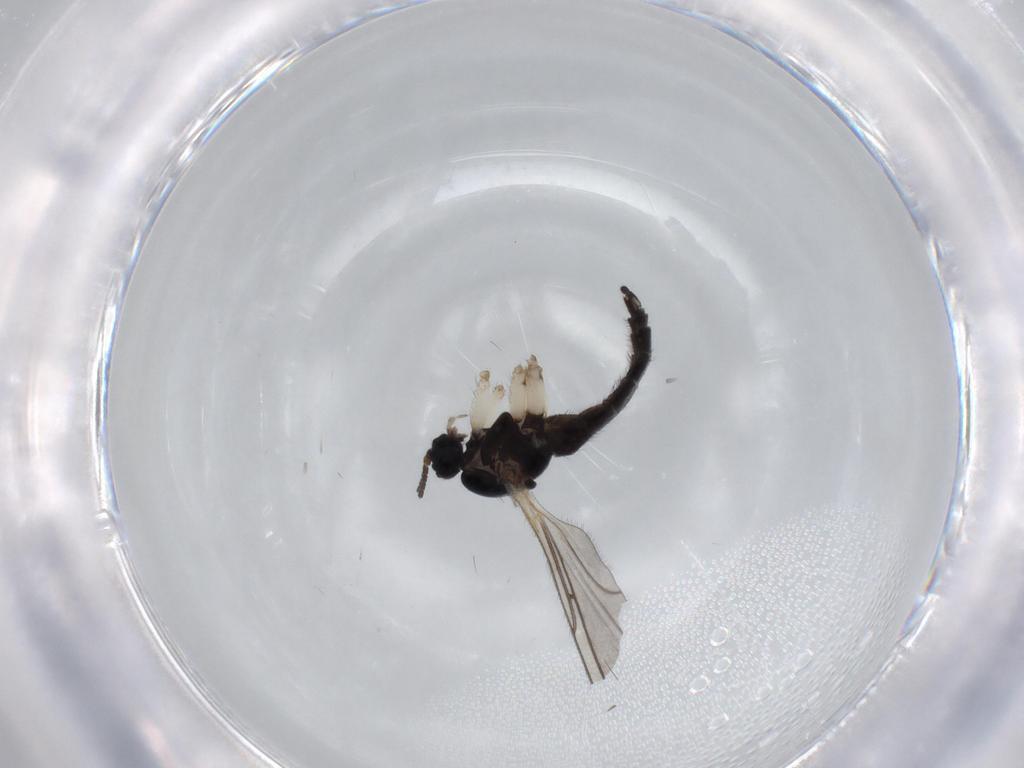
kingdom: Animalia
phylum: Arthropoda
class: Insecta
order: Diptera
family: Sciaridae
